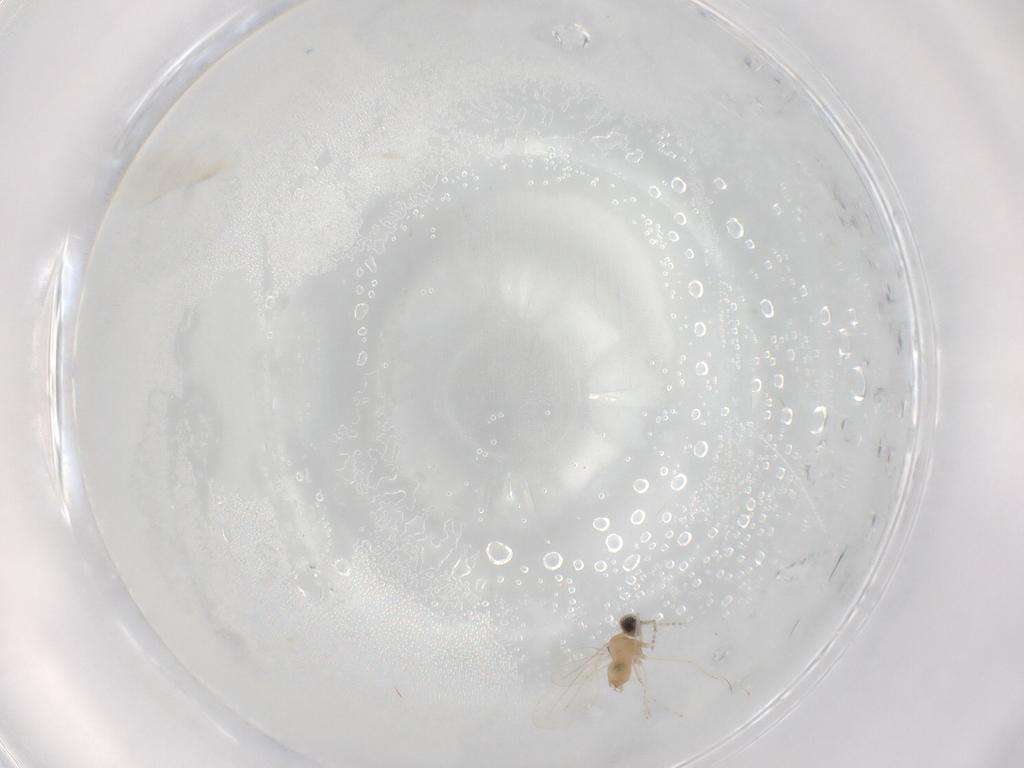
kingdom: Animalia
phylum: Arthropoda
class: Insecta
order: Diptera
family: Cecidomyiidae
